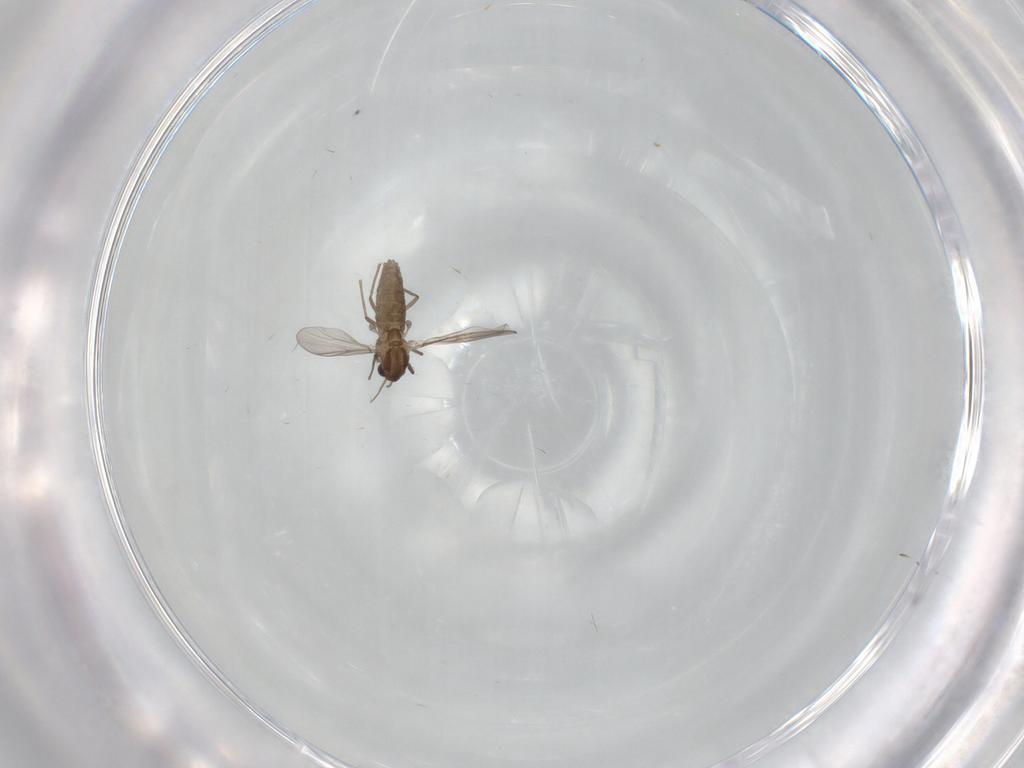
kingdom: Animalia
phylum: Arthropoda
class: Insecta
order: Diptera
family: Chironomidae
